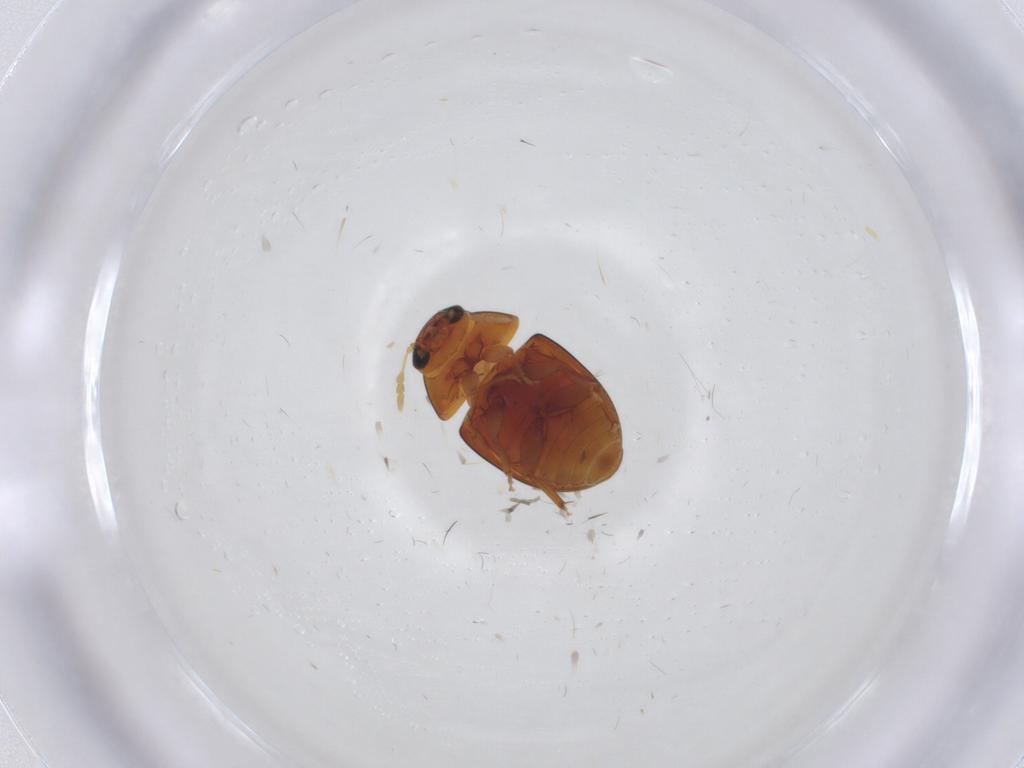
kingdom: Animalia
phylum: Arthropoda
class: Insecta
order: Coleoptera
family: Phalacridae
